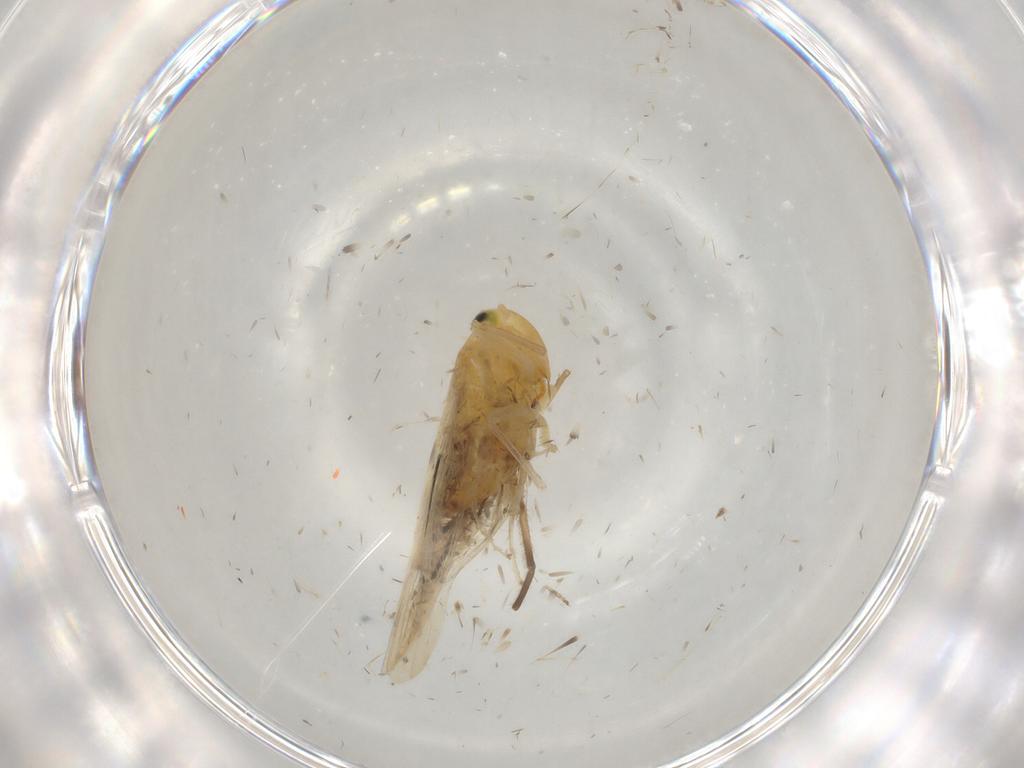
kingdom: Animalia
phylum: Arthropoda
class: Insecta
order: Hemiptera
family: Cicadellidae
